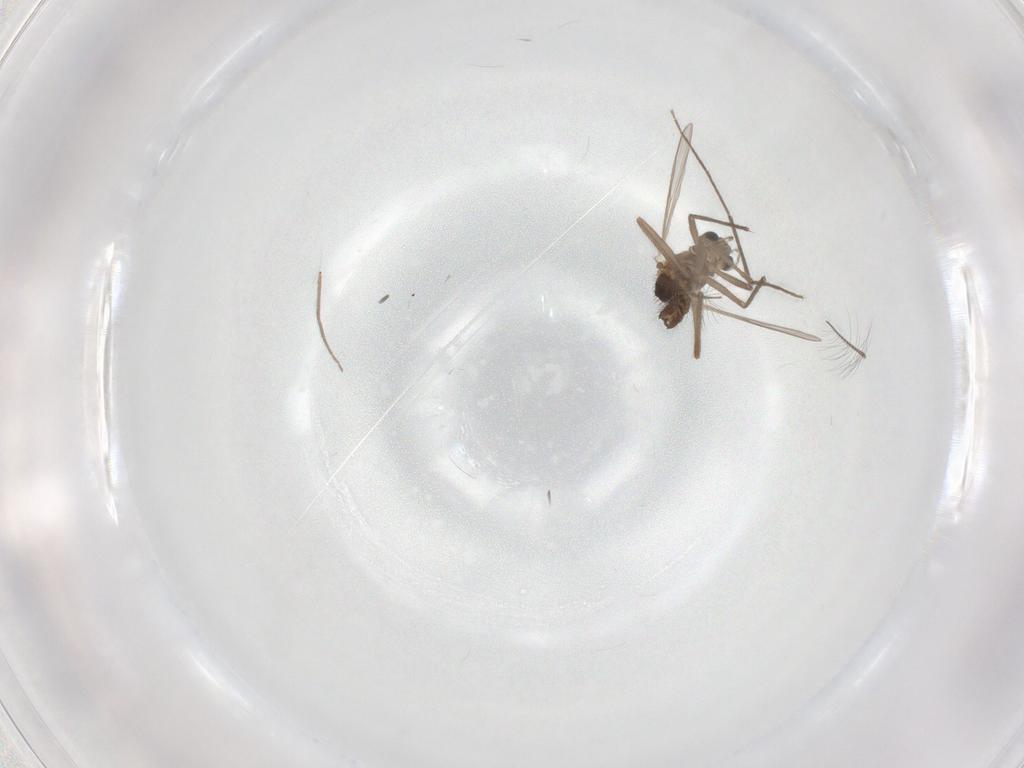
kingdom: Animalia
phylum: Arthropoda
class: Insecta
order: Diptera
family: Chironomidae
